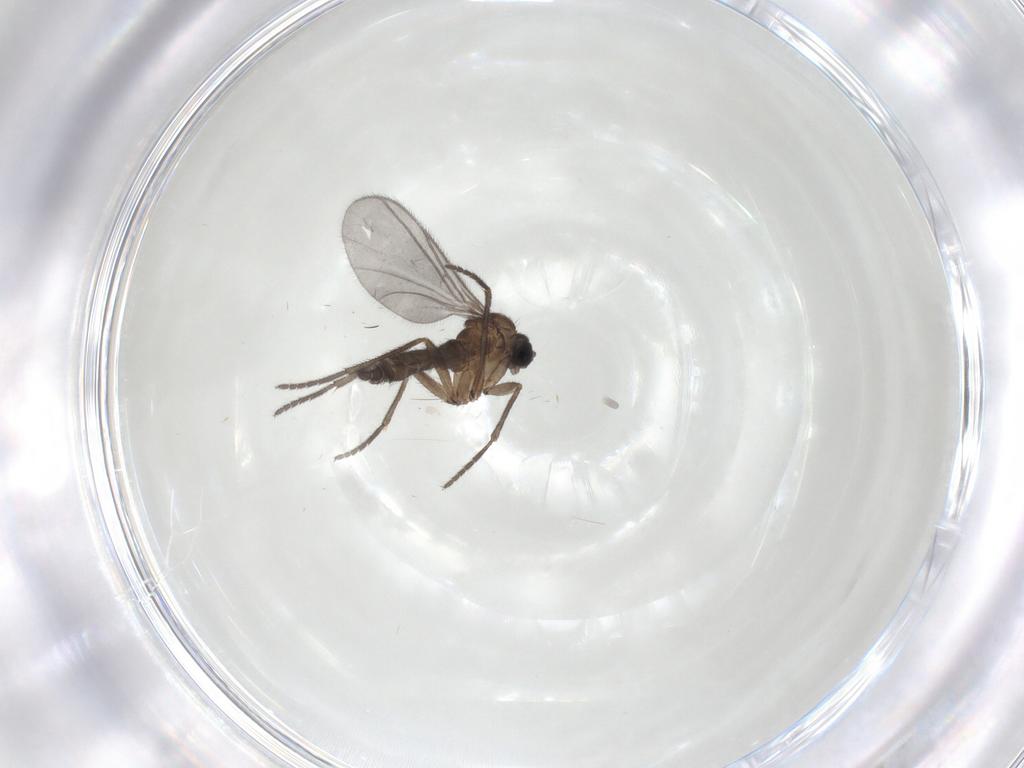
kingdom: Animalia
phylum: Arthropoda
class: Insecta
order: Diptera
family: Sciaridae
